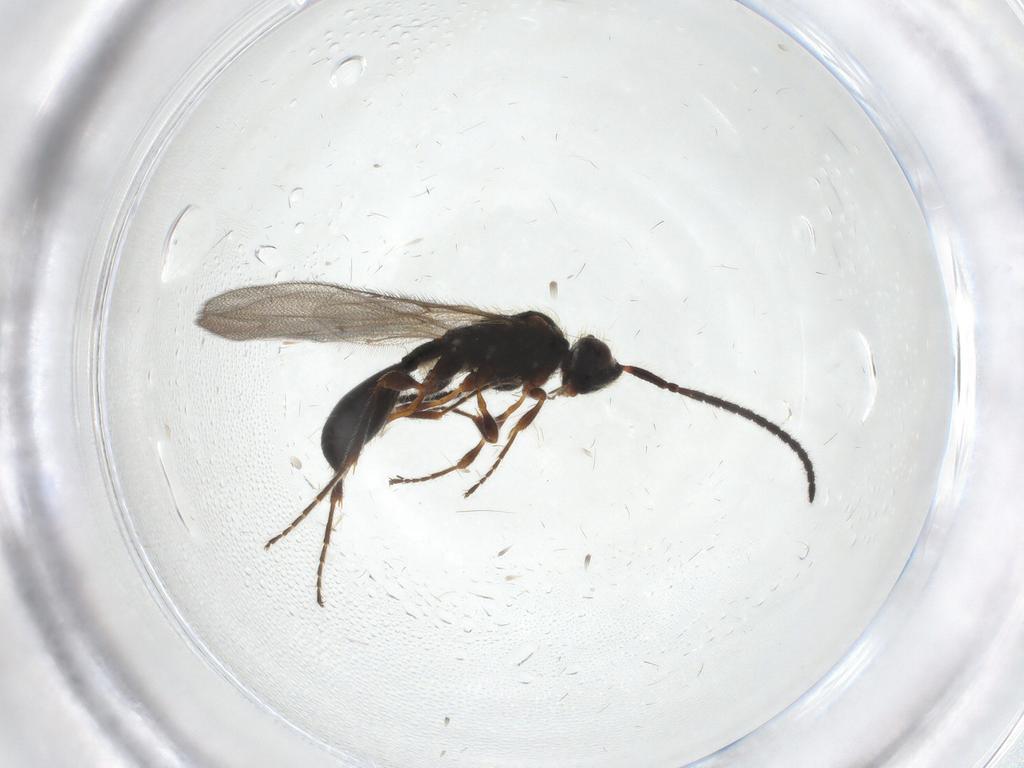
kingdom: Animalia
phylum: Arthropoda
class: Insecta
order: Hymenoptera
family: Diapriidae
